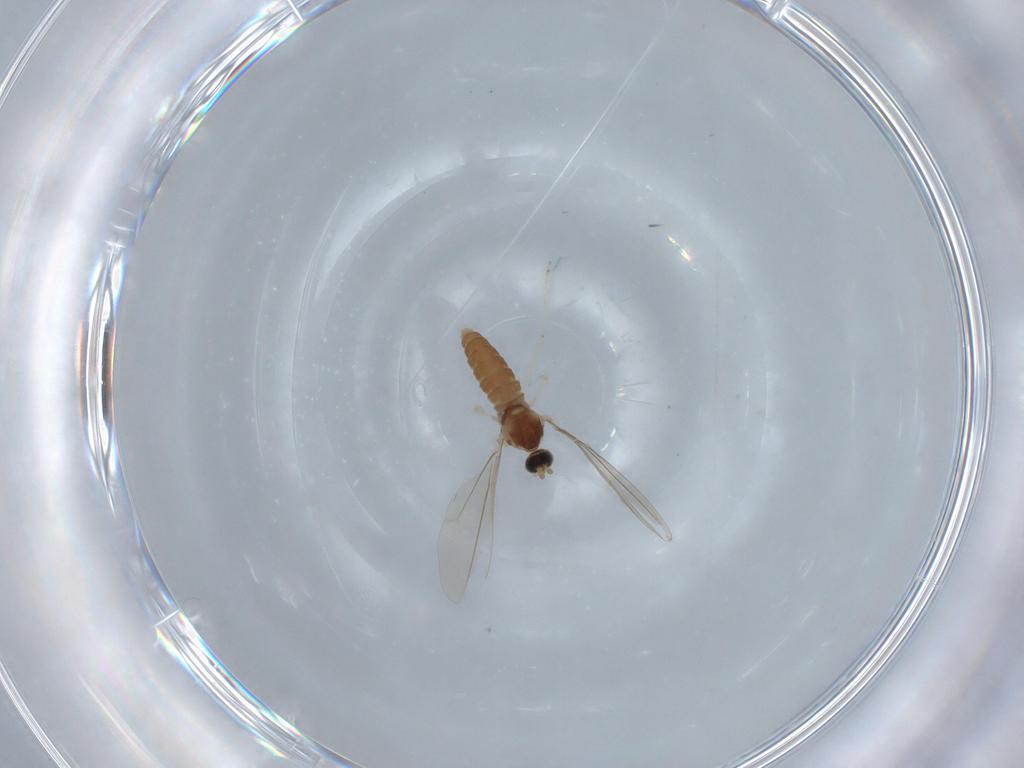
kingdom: Animalia
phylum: Arthropoda
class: Insecta
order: Diptera
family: Cecidomyiidae
